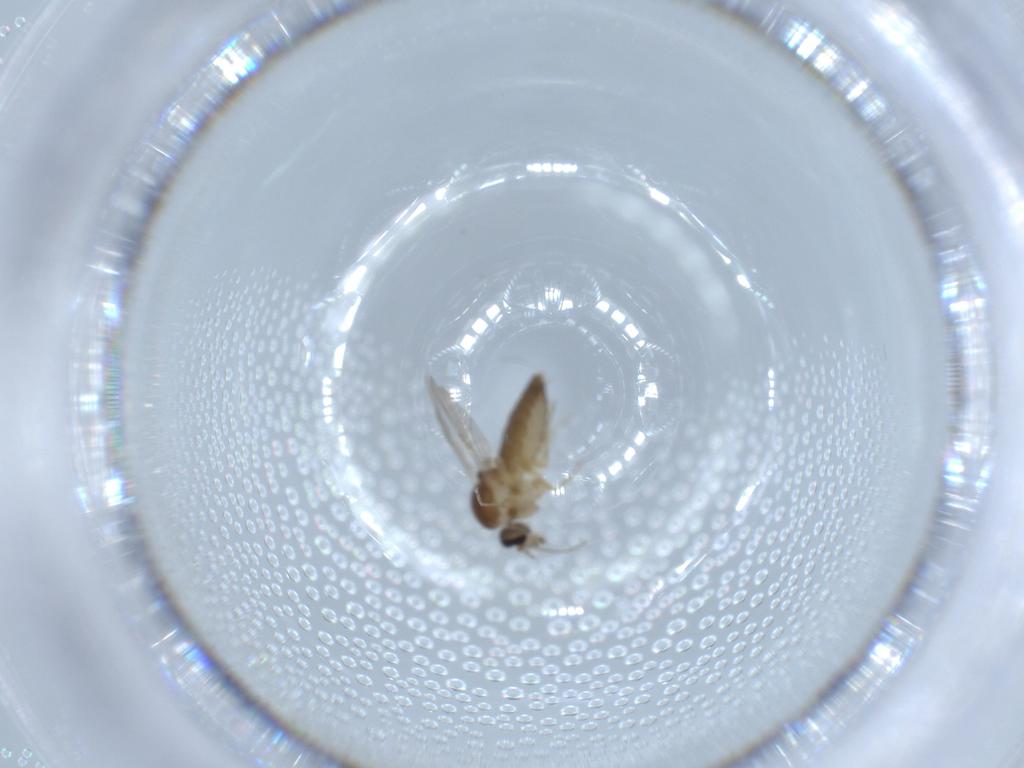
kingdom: Animalia
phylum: Arthropoda
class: Insecta
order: Diptera
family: Ceratopogonidae
